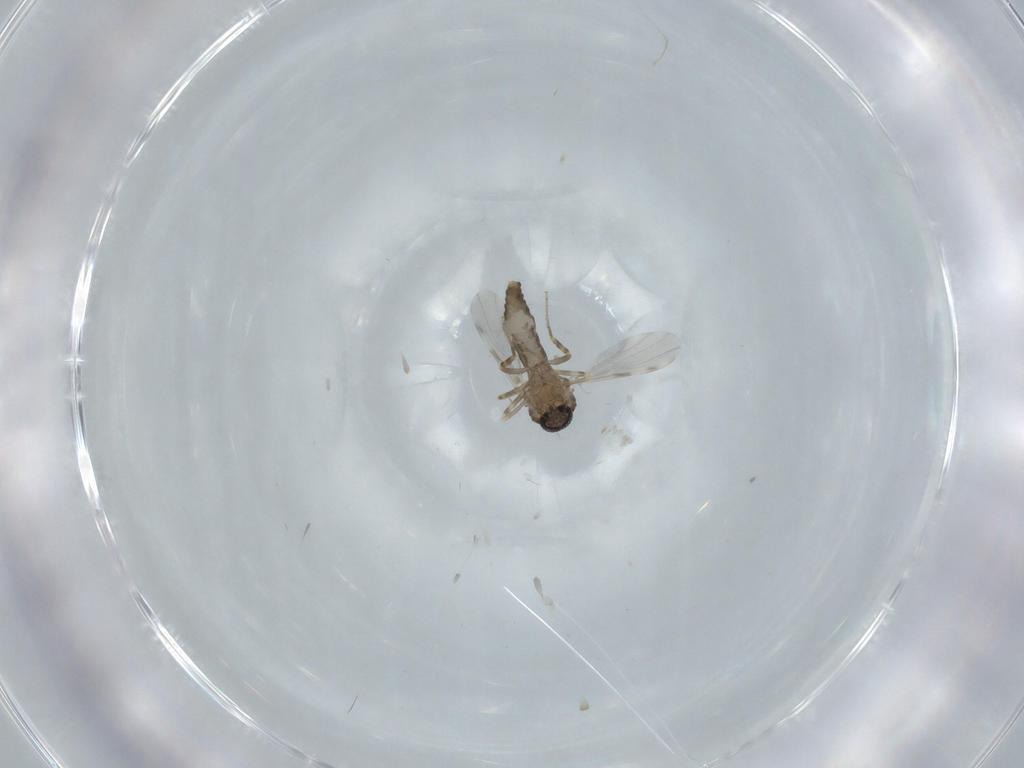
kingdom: Animalia
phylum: Arthropoda
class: Insecta
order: Diptera
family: Ceratopogonidae
